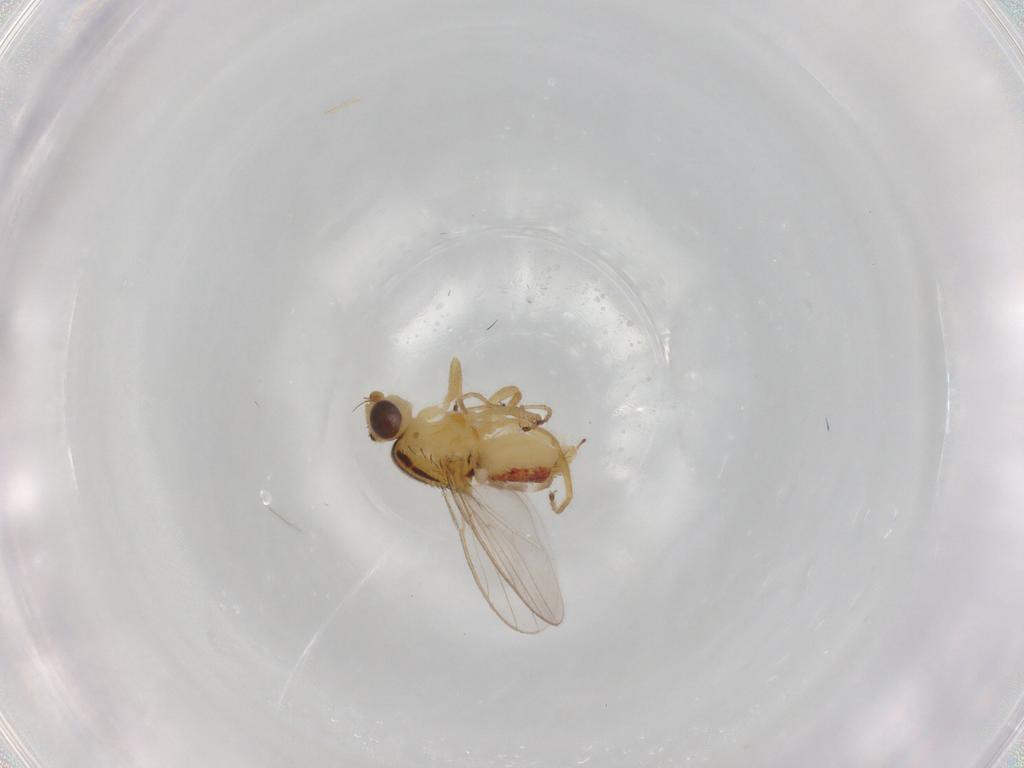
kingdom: Animalia
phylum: Arthropoda
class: Insecta
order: Diptera
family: Chloropidae
